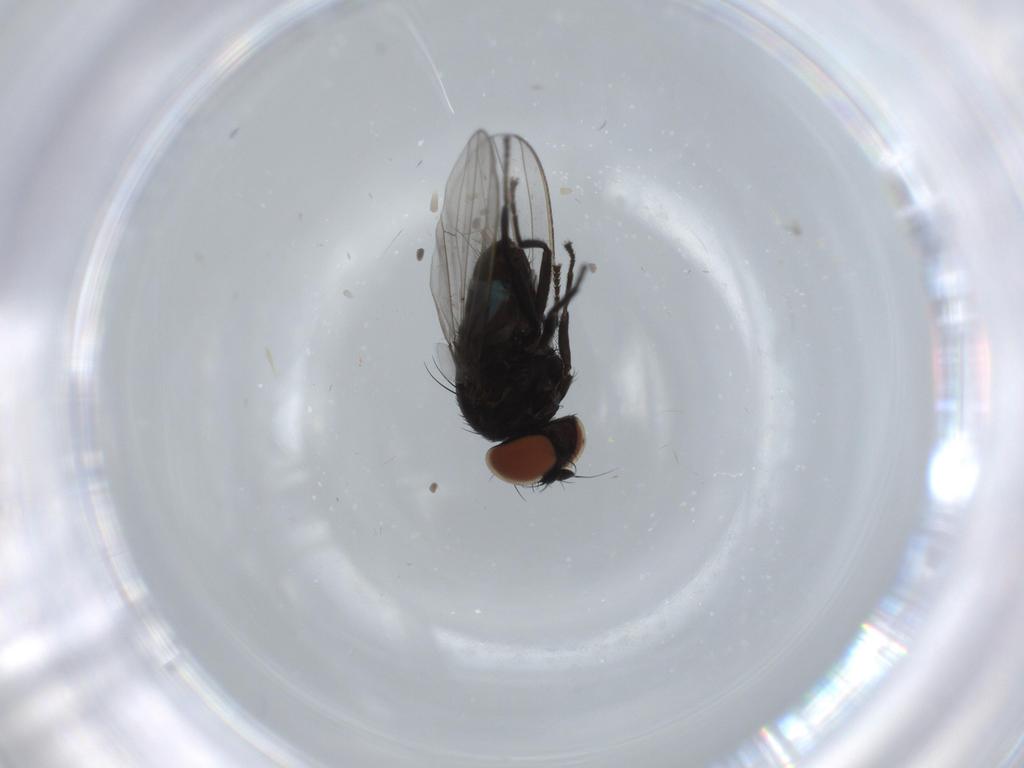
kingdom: Animalia
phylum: Arthropoda
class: Insecta
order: Diptera
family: Milichiidae
